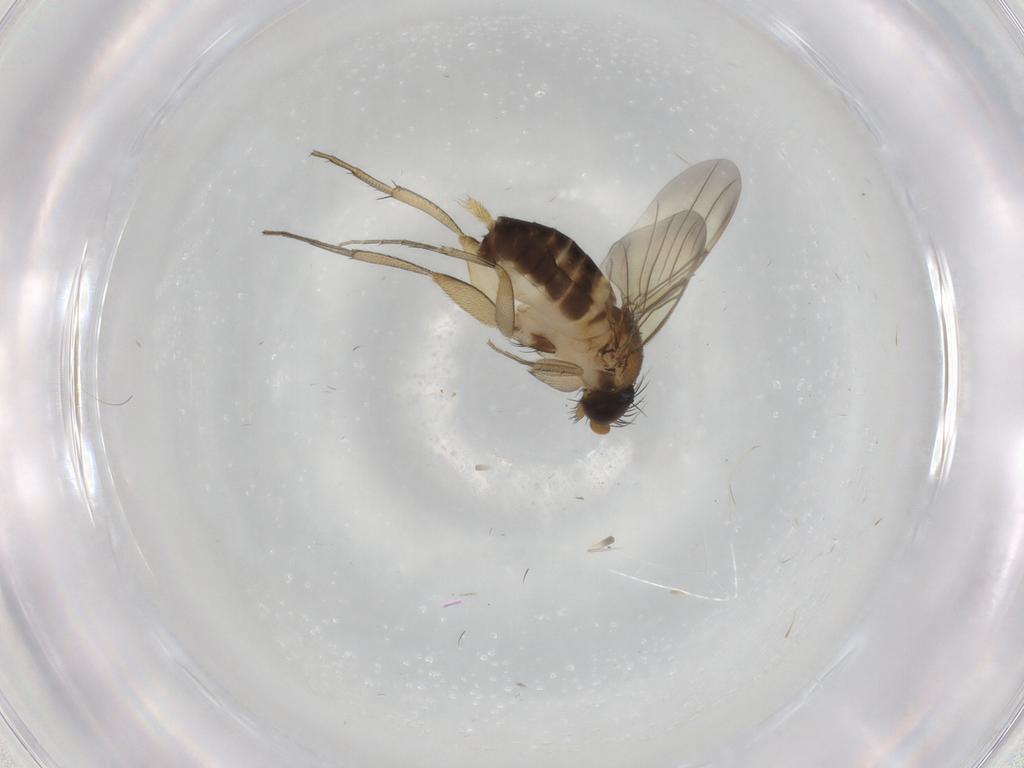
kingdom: Animalia
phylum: Arthropoda
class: Insecta
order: Diptera
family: Phoridae
